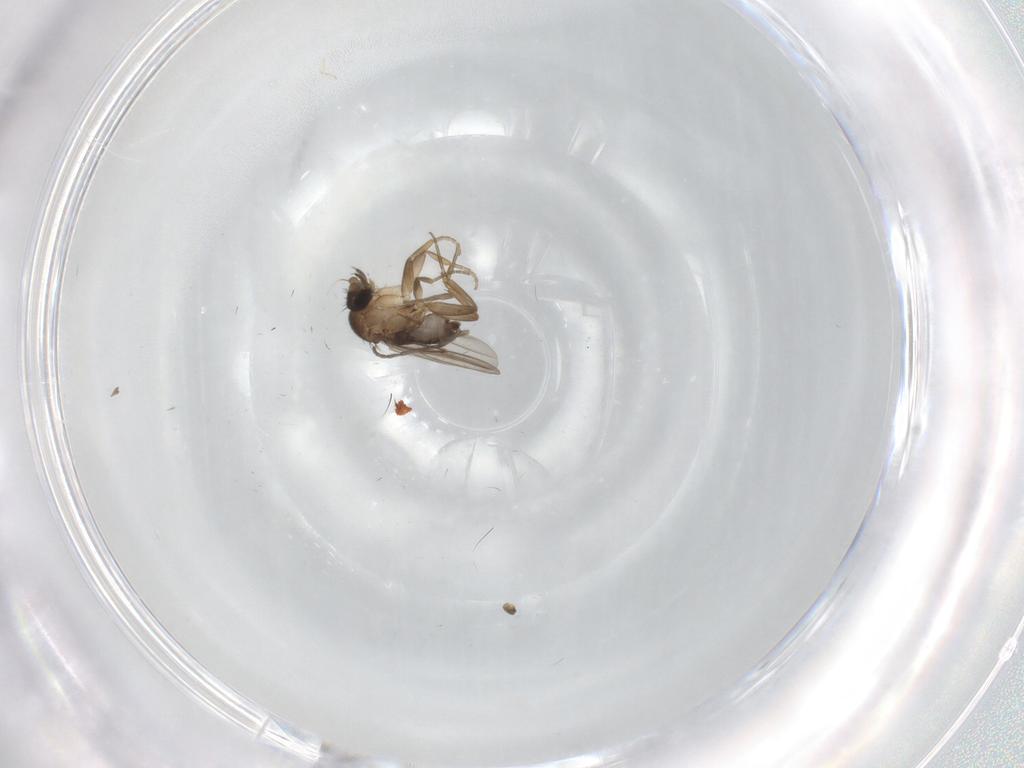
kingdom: Animalia
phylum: Arthropoda
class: Insecta
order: Diptera
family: Phoridae
